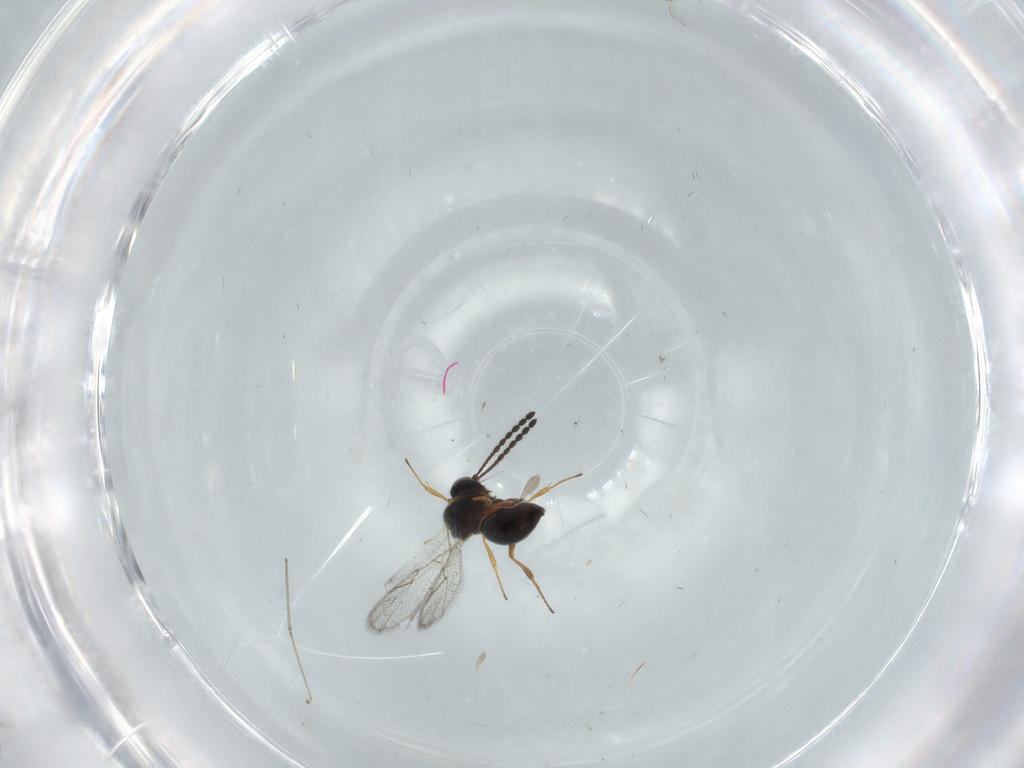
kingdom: Animalia
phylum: Arthropoda
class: Insecta
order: Hymenoptera
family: Figitidae
